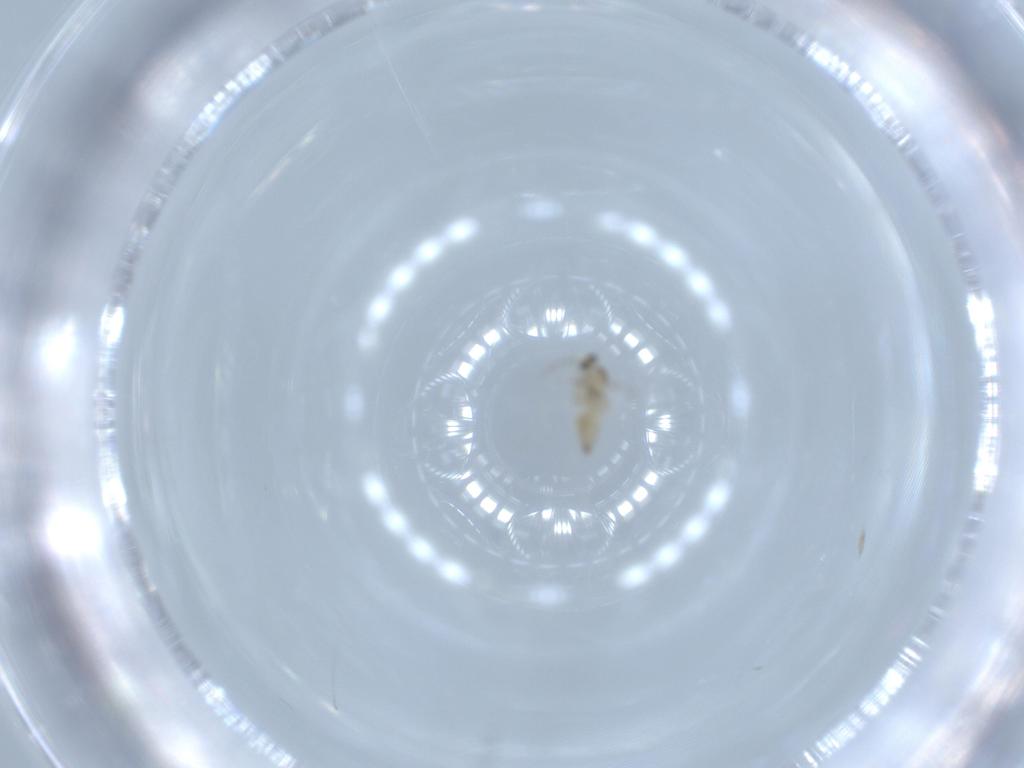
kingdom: Animalia
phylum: Arthropoda
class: Insecta
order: Diptera
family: Cecidomyiidae
